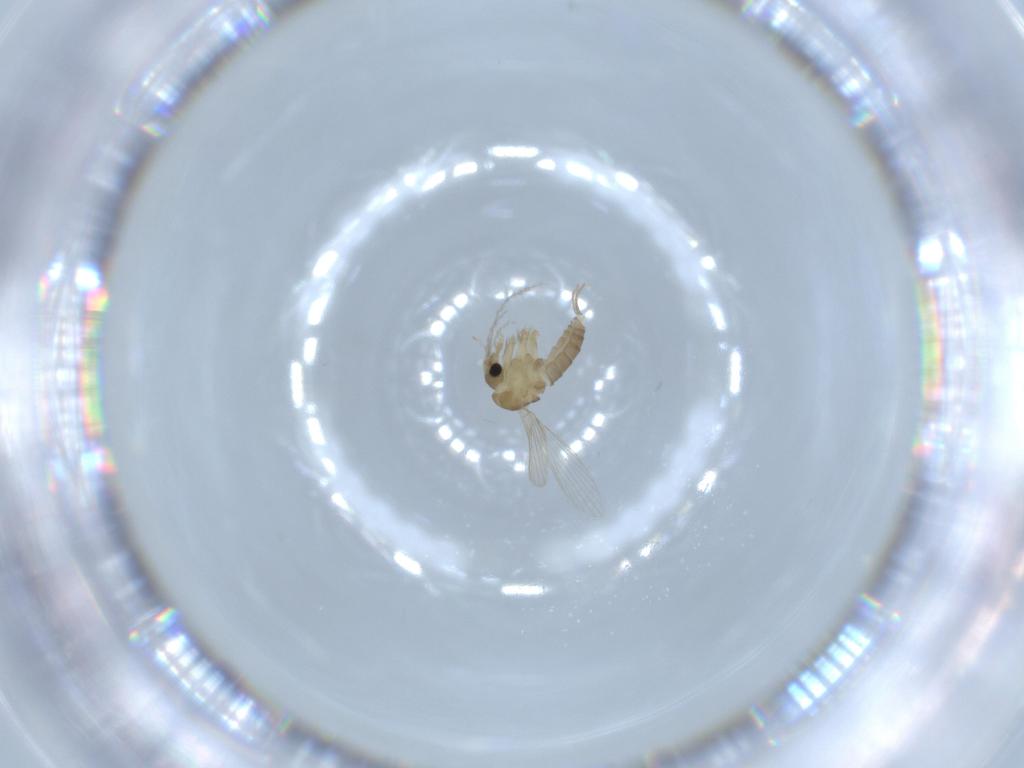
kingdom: Animalia
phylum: Arthropoda
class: Insecta
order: Diptera
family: Psychodidae
